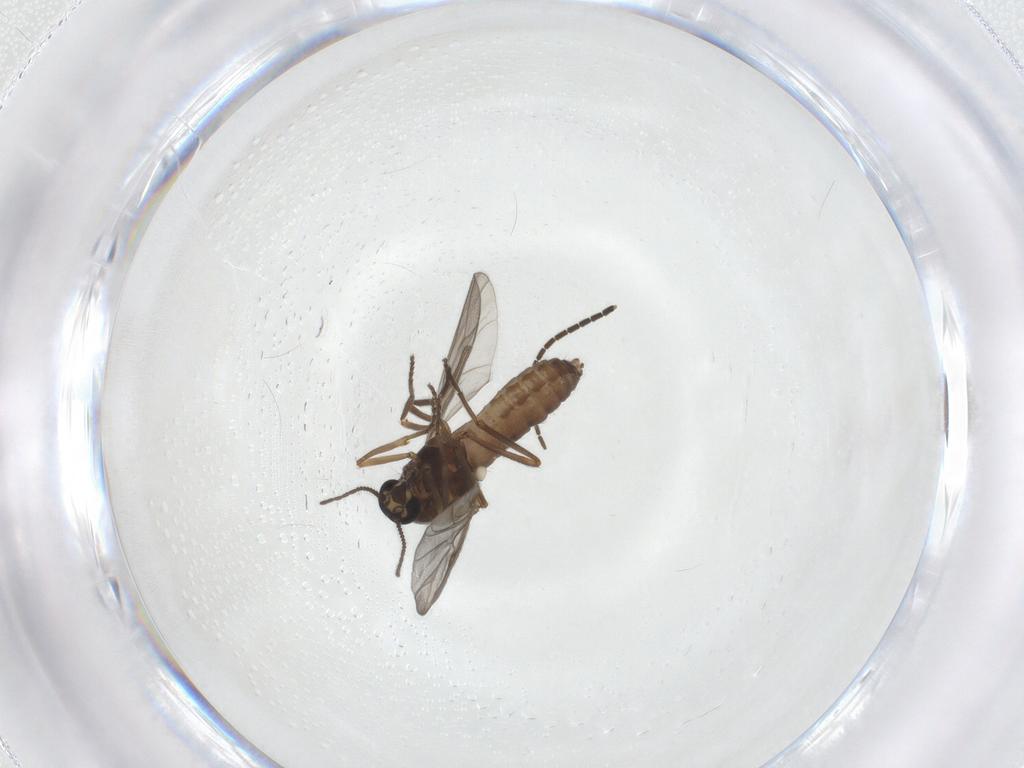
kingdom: Animalia
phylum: Arthropoda
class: Insecta
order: Diptera
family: Ceratopogonidae
